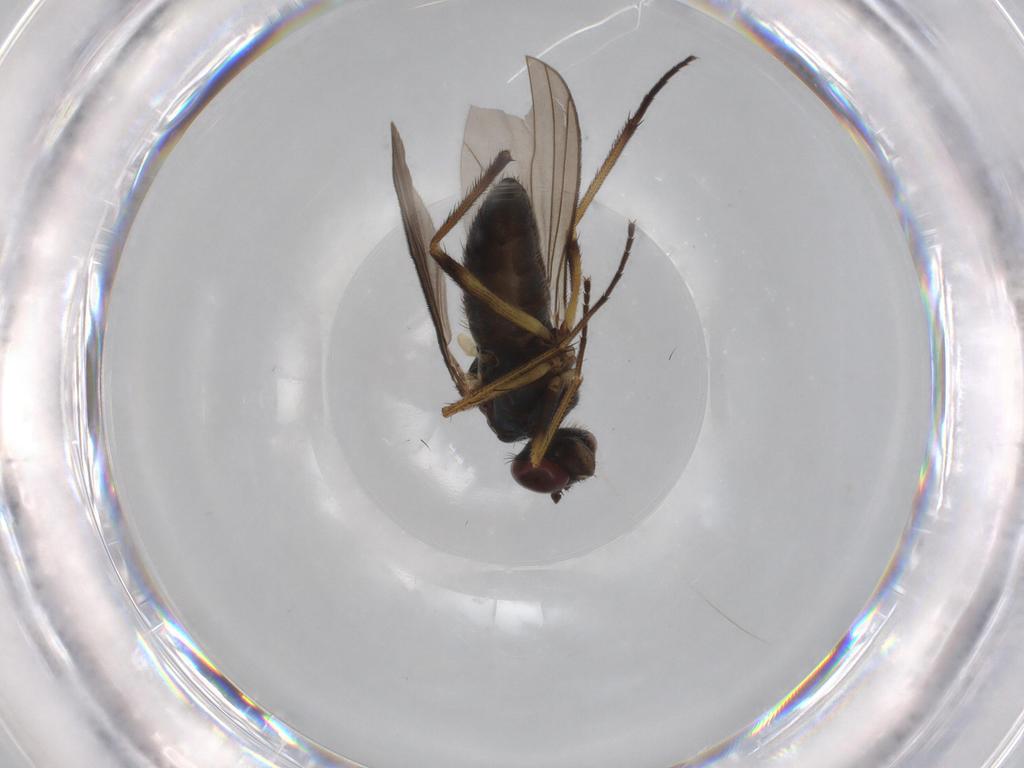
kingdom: Animalia
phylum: Arthropoda
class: Insecta
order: Diptera
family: Dolichopodidae
